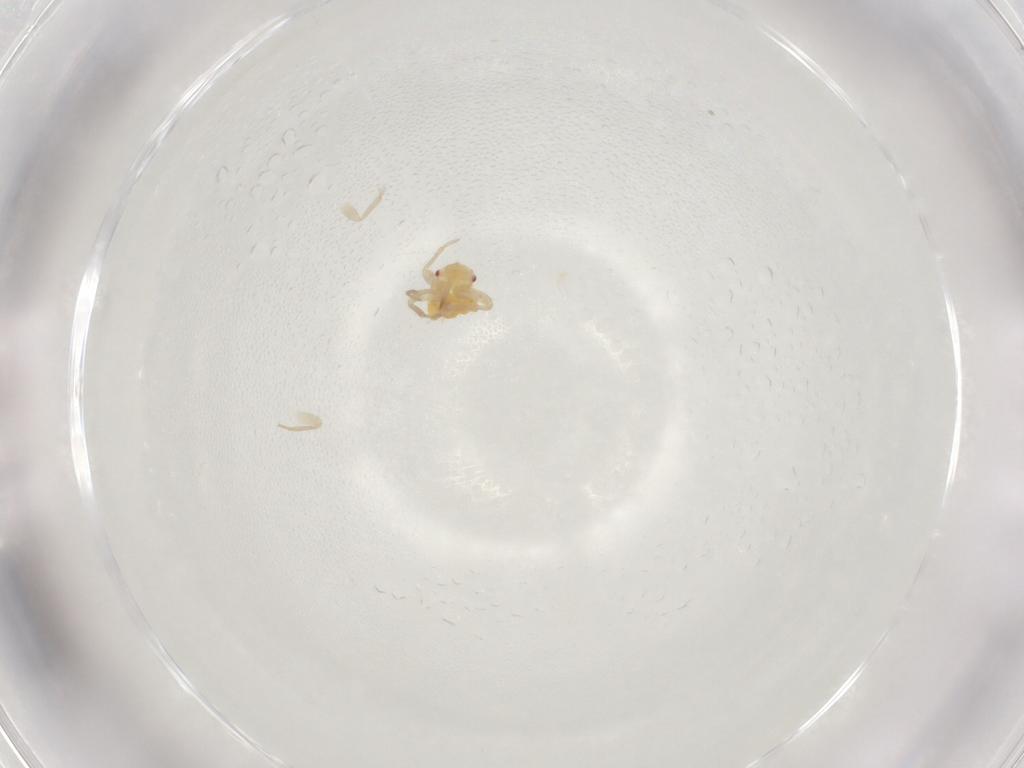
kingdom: Animalia
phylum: Arthropoda
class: Insecta
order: Hemiptera
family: Miridae
